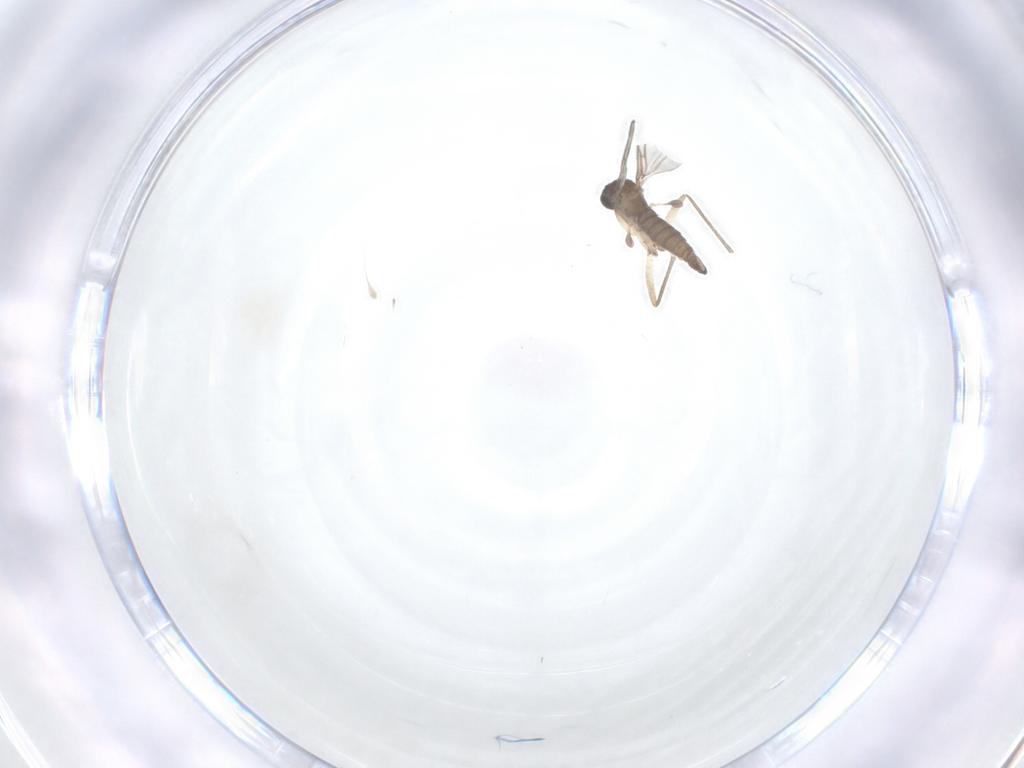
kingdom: Animalia
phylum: Arthropoda
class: Insecta
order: Diptera
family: Sciaridae
